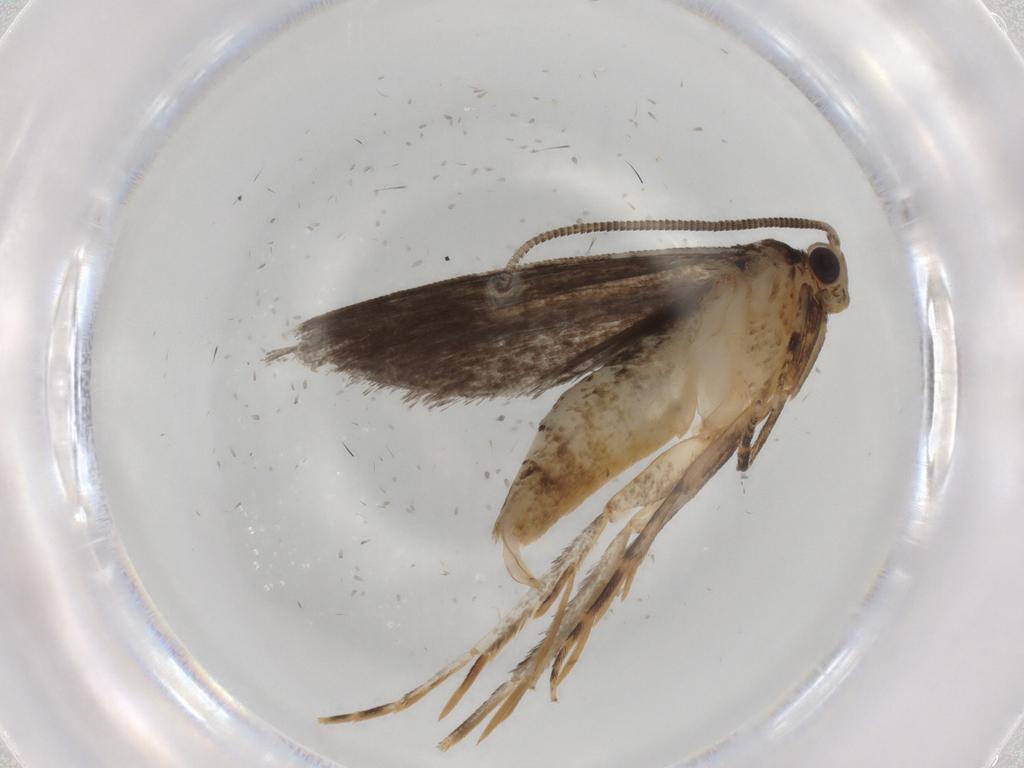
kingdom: Animalia
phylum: Arthropoda
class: Insecta
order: Lepidoptera
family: Tineidae
